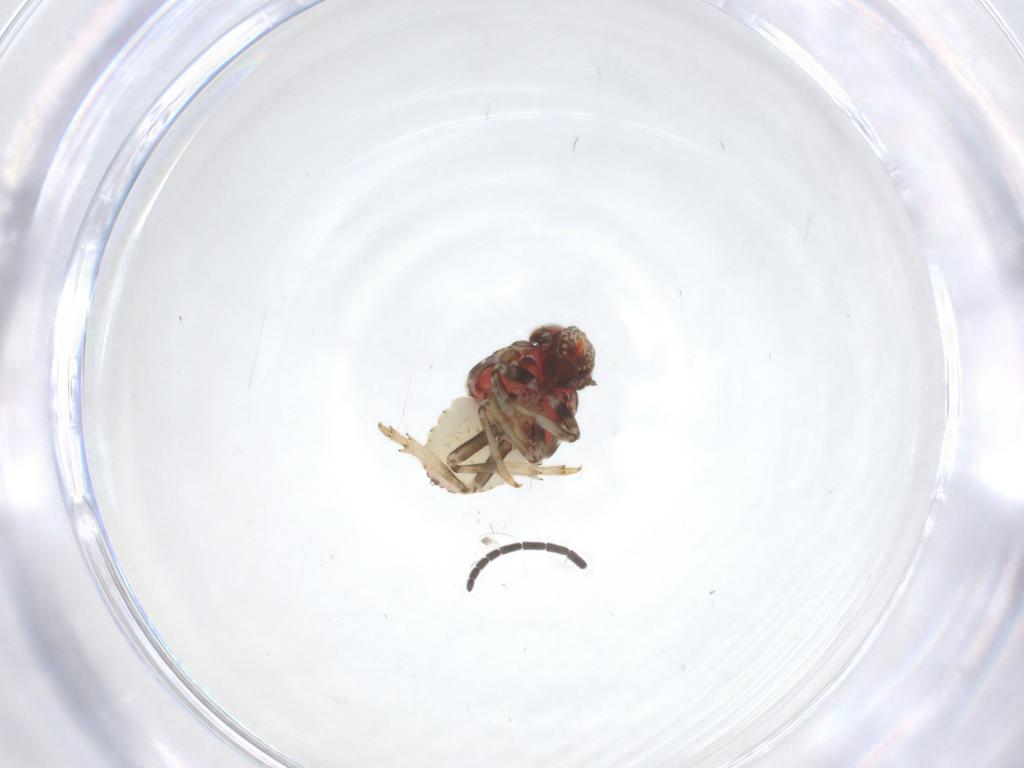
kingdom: Animalia
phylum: Arthropoda
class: Insecta
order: Hemiptera
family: Issidae
